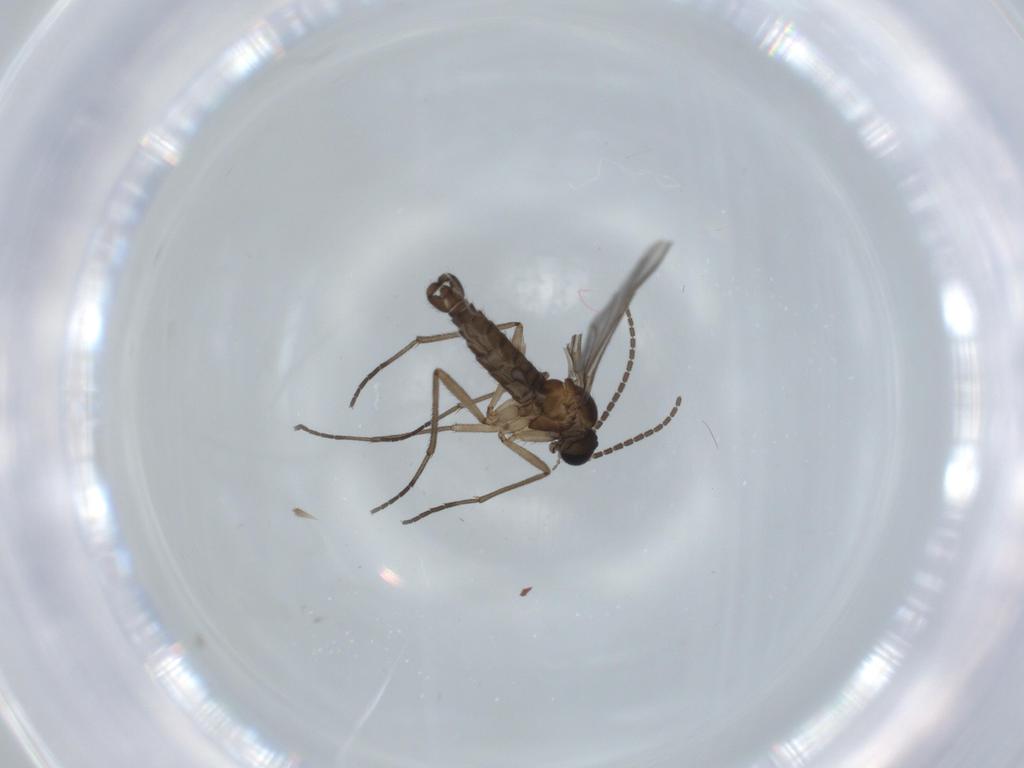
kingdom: Animalia
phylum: Arthropoda
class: Insecta
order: Diptera
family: Sciaridae
